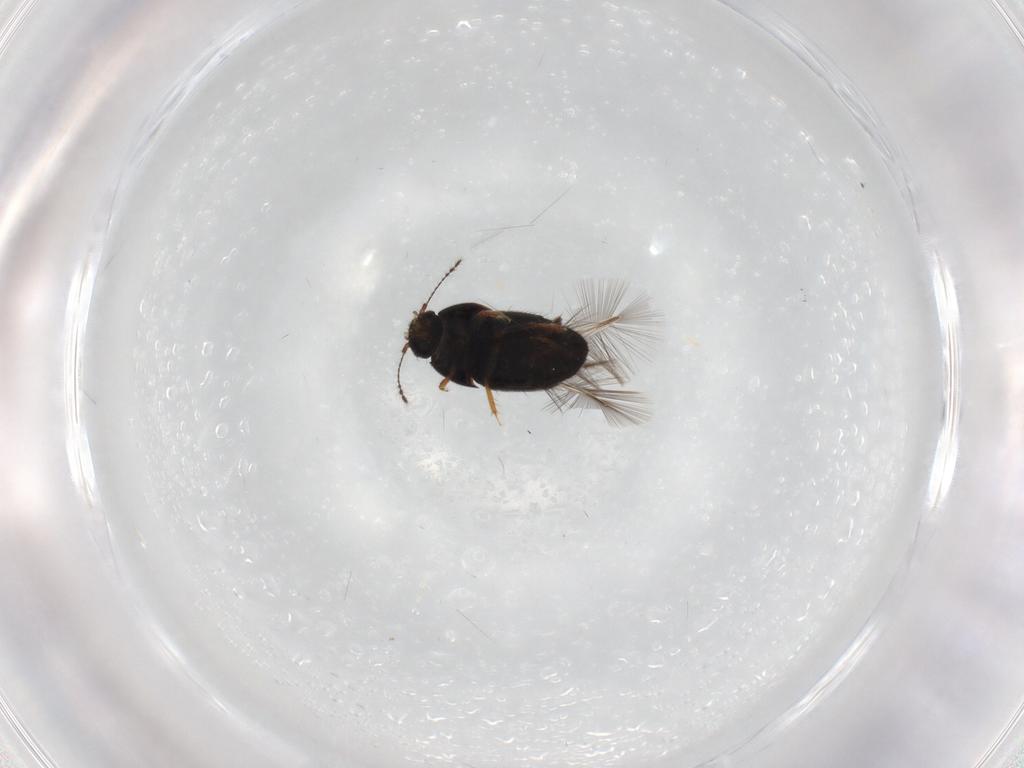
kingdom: Animalia
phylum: Arthropoda
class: Insecta
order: Coleoptera
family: Ptiliidae
